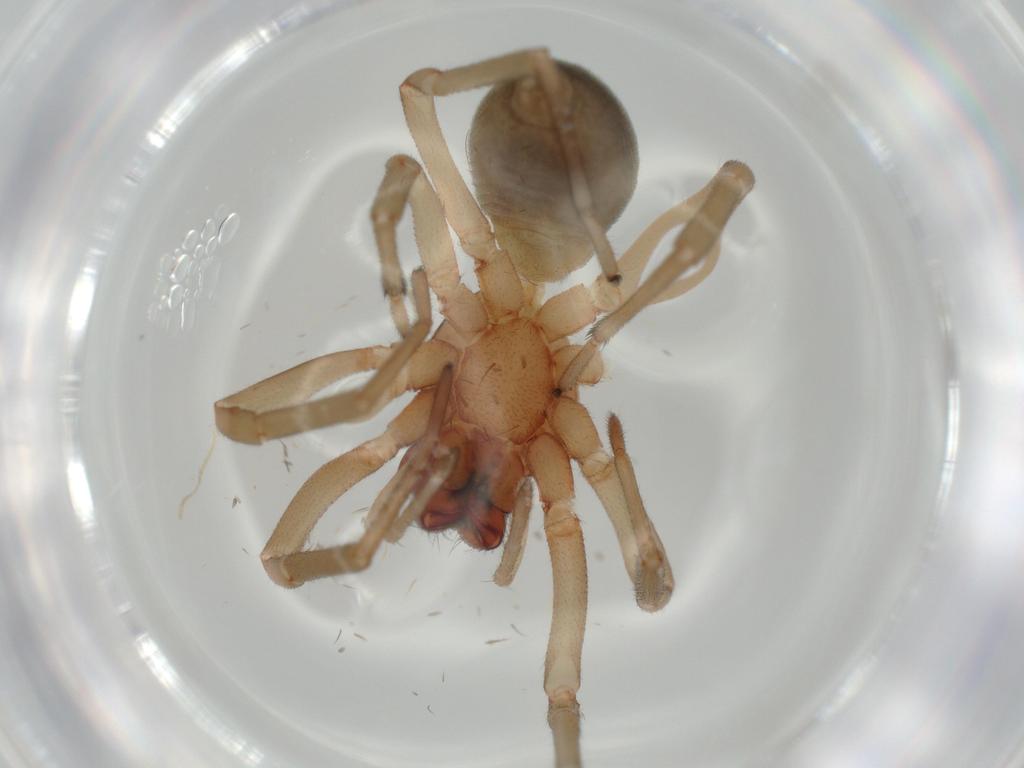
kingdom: Animalia
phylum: Arthropoda
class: Arachnida
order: Araneae
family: Trachelidae
